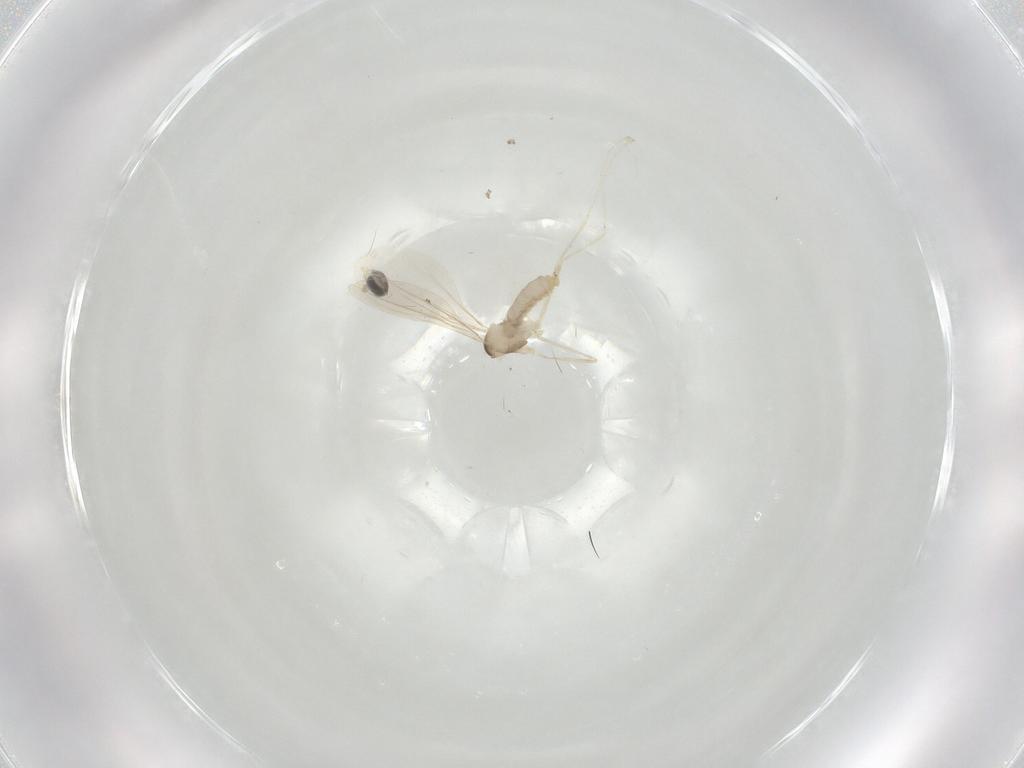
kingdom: Animalia
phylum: Arthropoda
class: Insecta
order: Diptera
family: Cecidomyiidae
